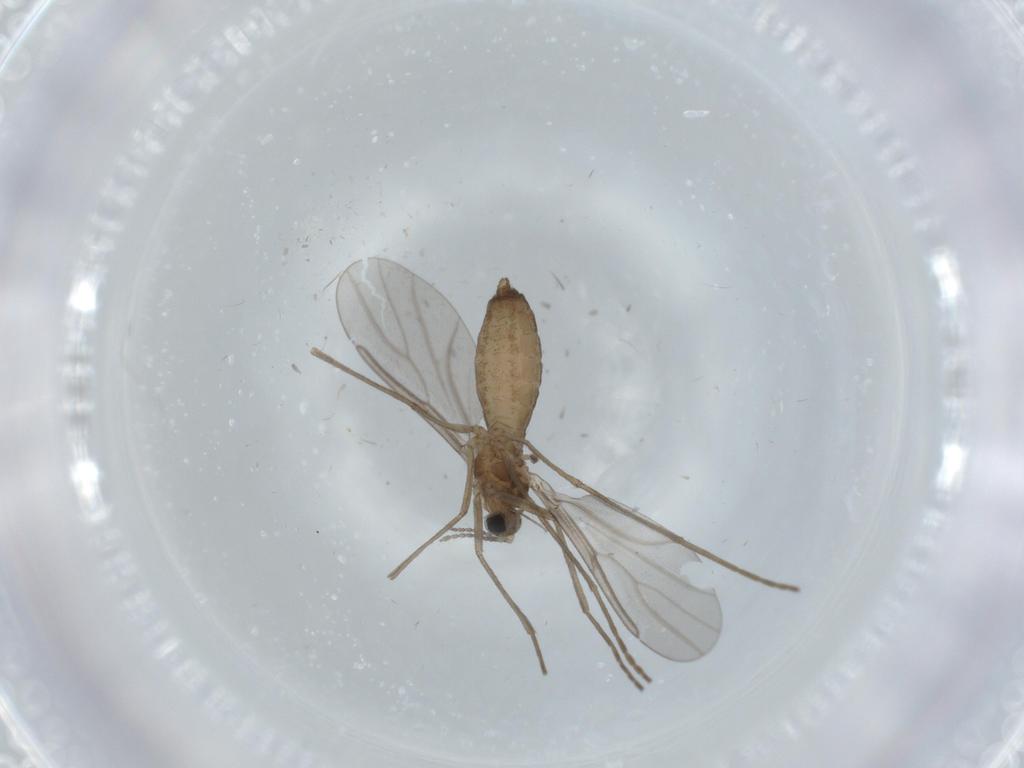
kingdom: Animalia
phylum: Arthropoda
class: Insecta
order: Diptera
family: Cecidomyiidae
